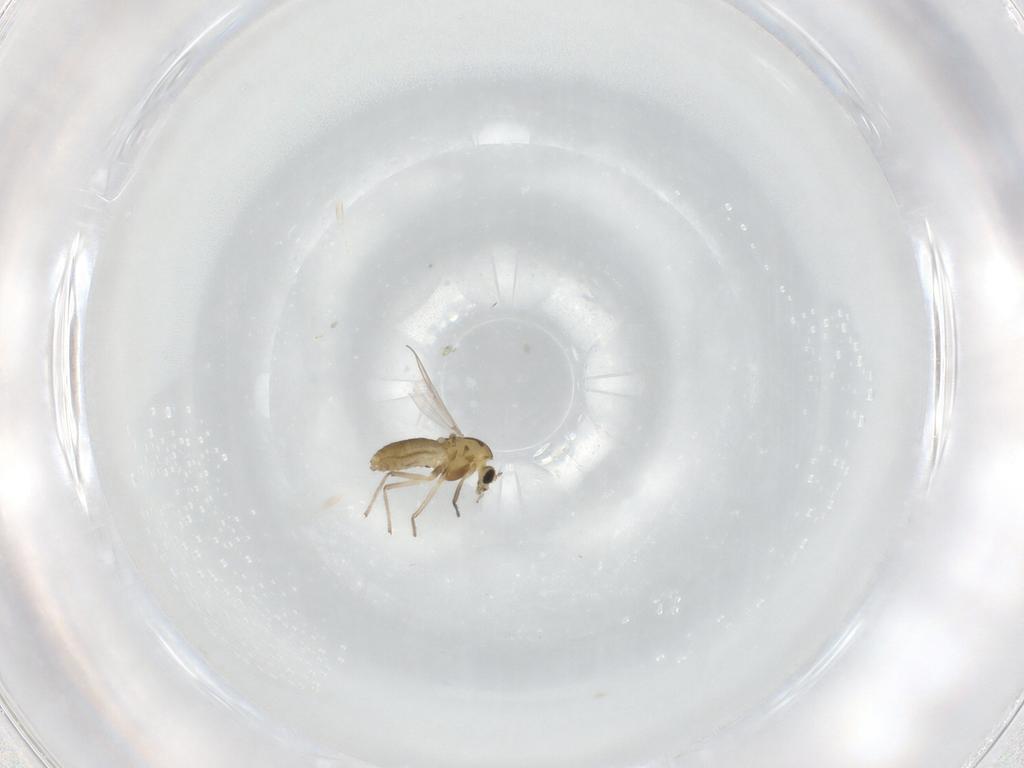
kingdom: Animalia
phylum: Arthropoda
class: Insecta
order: Diptera
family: Chironomidae
